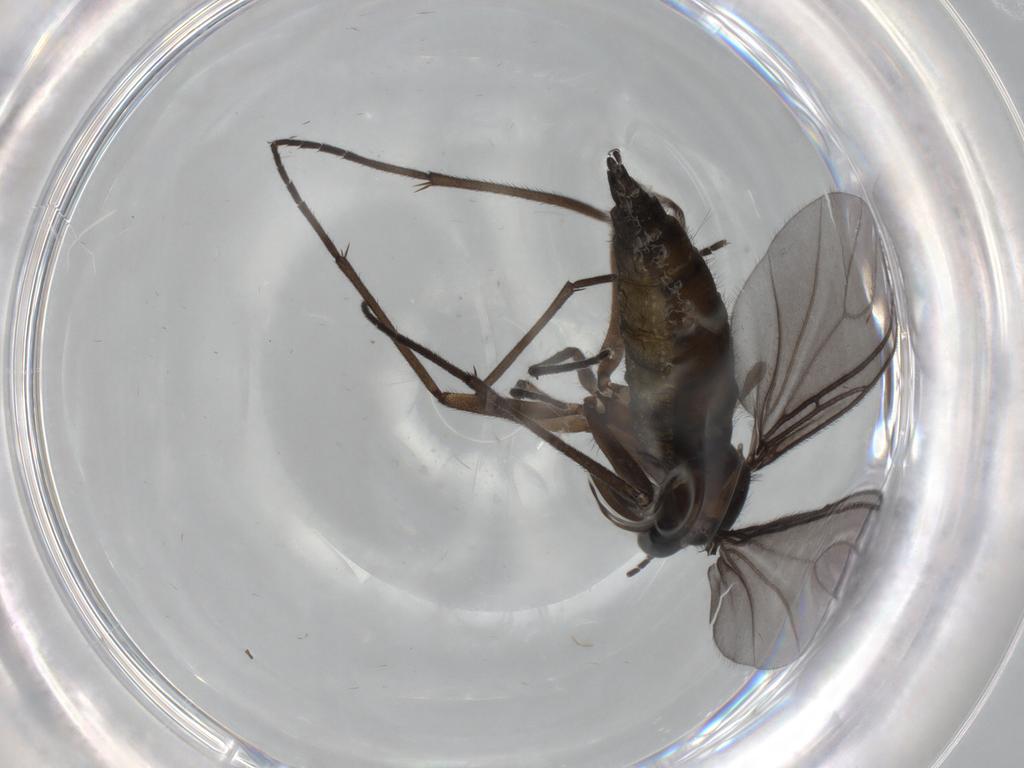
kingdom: Animalia
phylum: Arthropoda
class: Insecta
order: Diptera
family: Sciaridae
